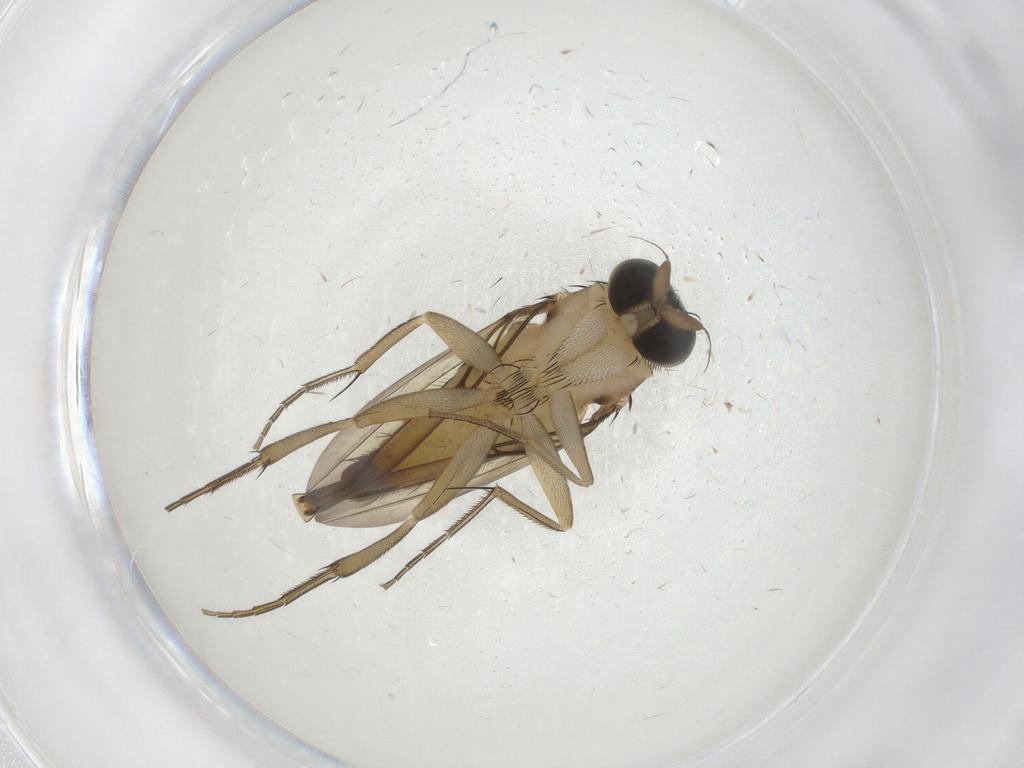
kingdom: Animalia
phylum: Arthropoda
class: Insecta
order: Diptera
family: Phoridae
